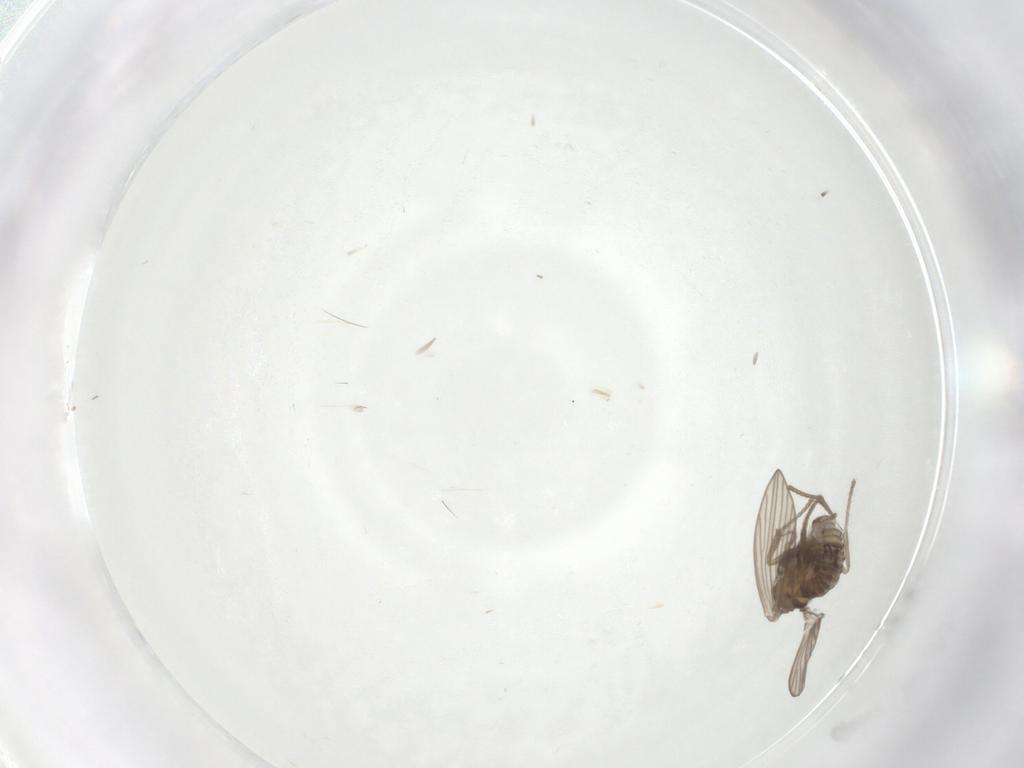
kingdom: Animalia
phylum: Arthropoda
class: Insecta
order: Diptera
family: Psychodidae
